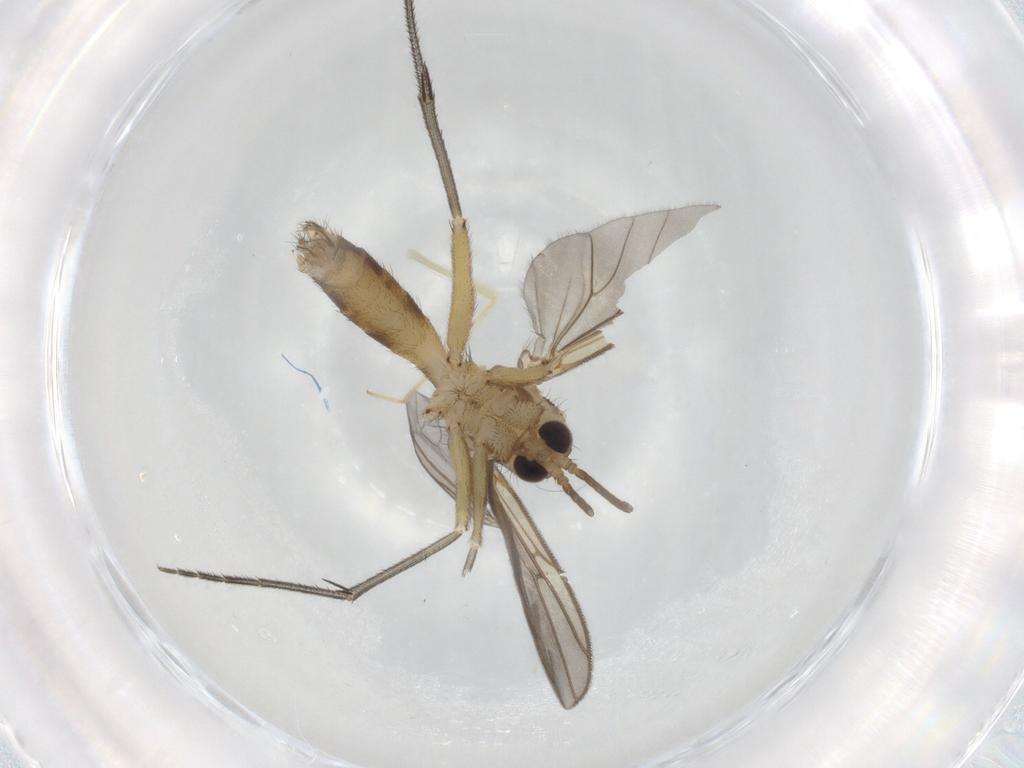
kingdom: Animalia
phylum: Arthropoda
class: Insecta
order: Diptera
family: Mycetophilidae
